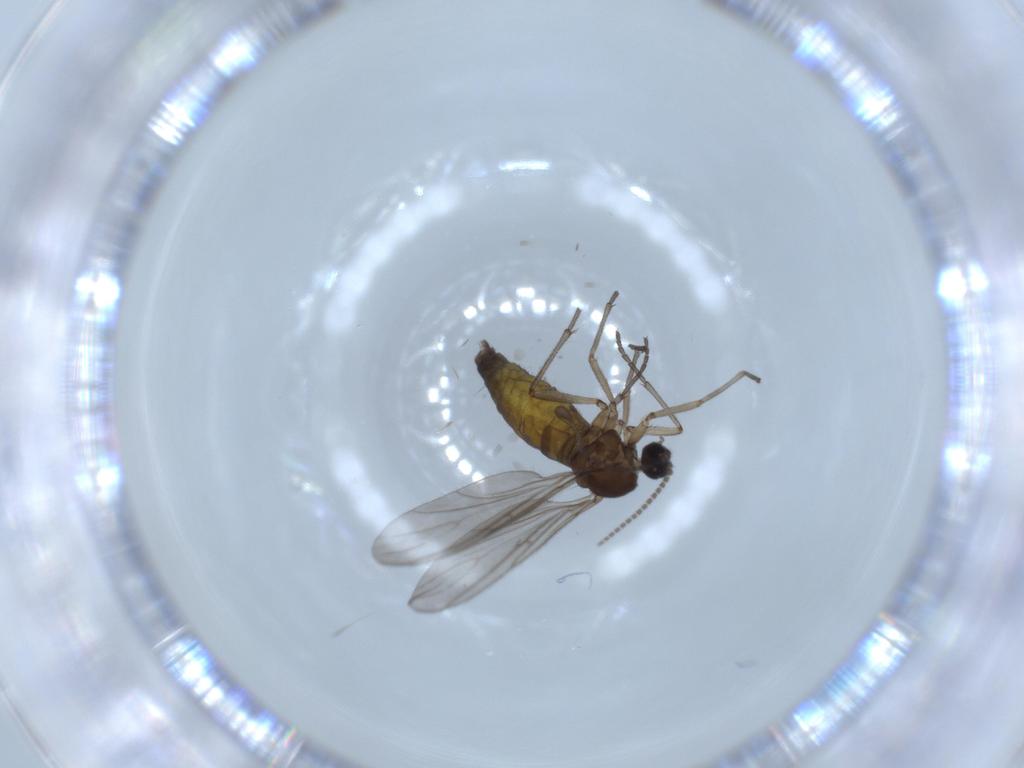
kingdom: Animalia
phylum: Arthropoda
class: Insecta
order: Diptera
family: Sciaridae
